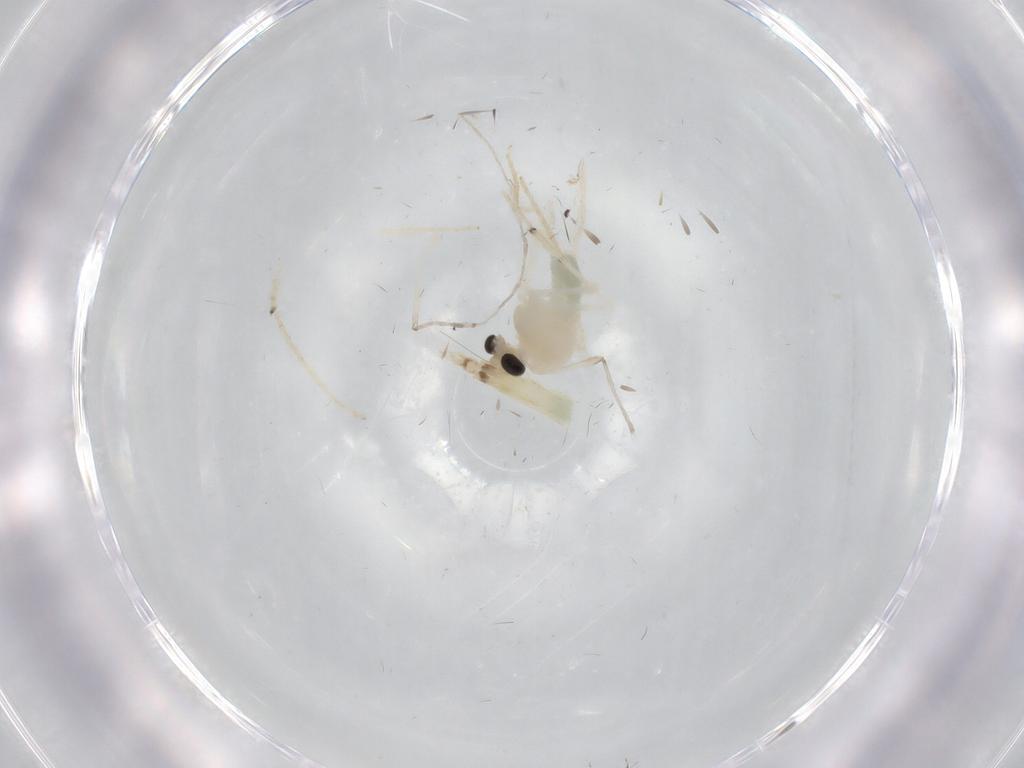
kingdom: Animalia
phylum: Arthropoda
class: Insecta
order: Diptera
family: Chironomidae
